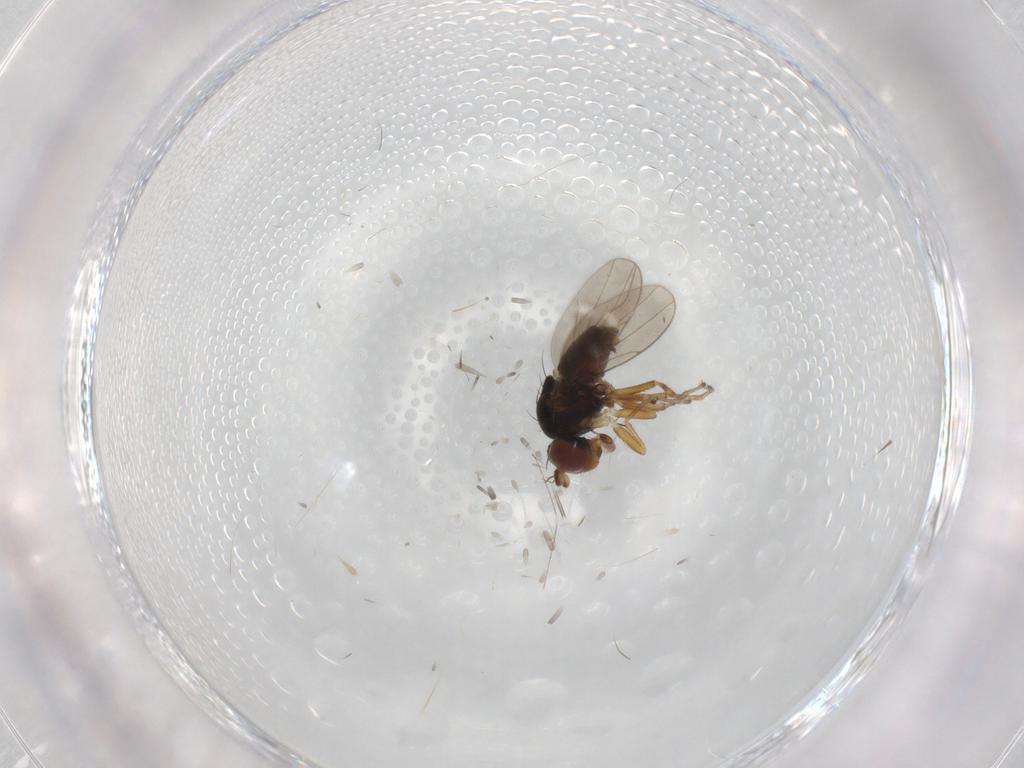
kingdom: Animalia
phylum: Arthropoda
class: Insecta
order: Diptera
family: Ephydridae
